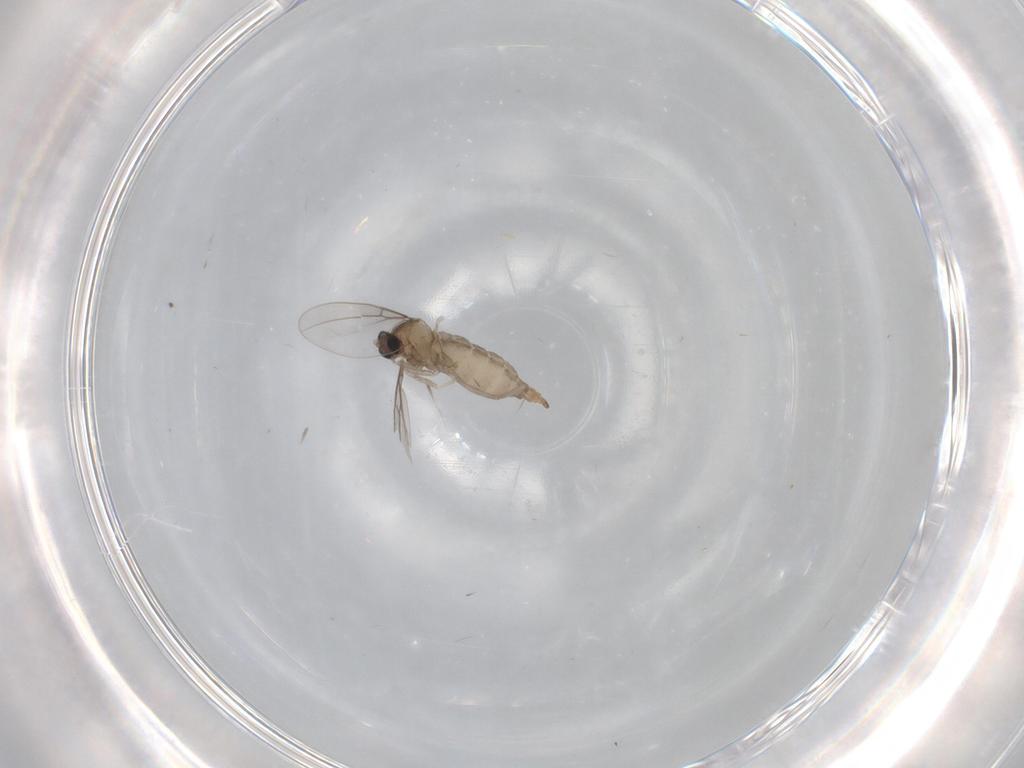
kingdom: Animalia
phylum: Arthropoda
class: Insecta
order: Diptera
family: Cecidomyiidae
